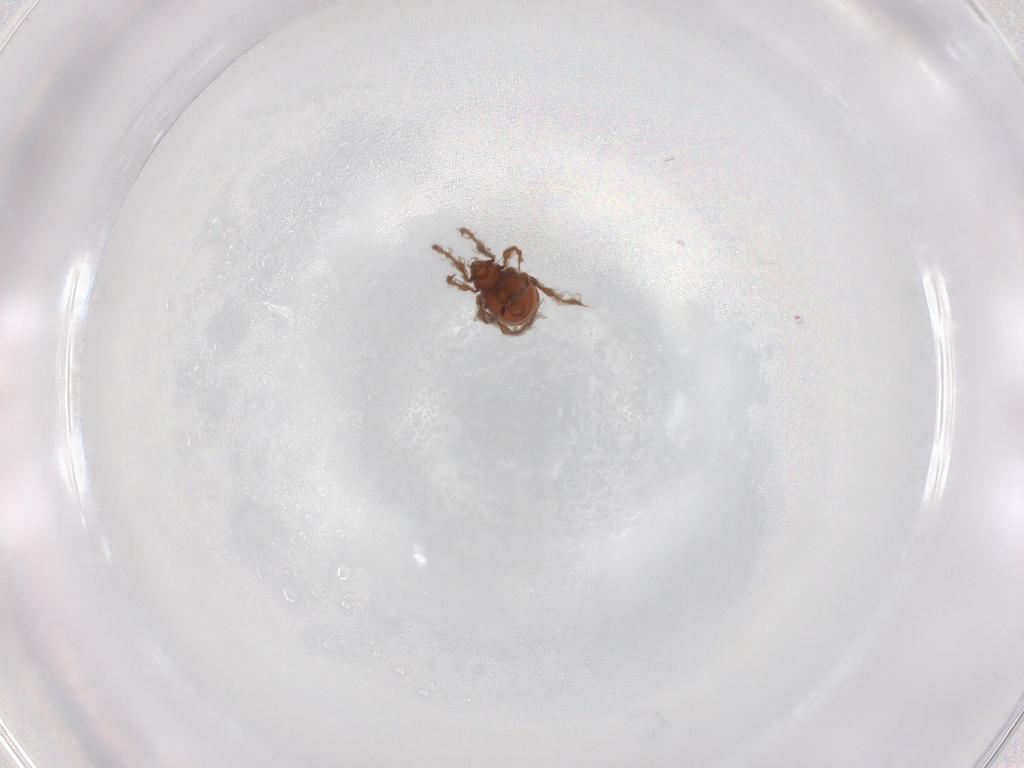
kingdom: Animalia
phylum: Arthropoda
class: Arachnida
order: Sarcoptiformes
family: Damaeidae
